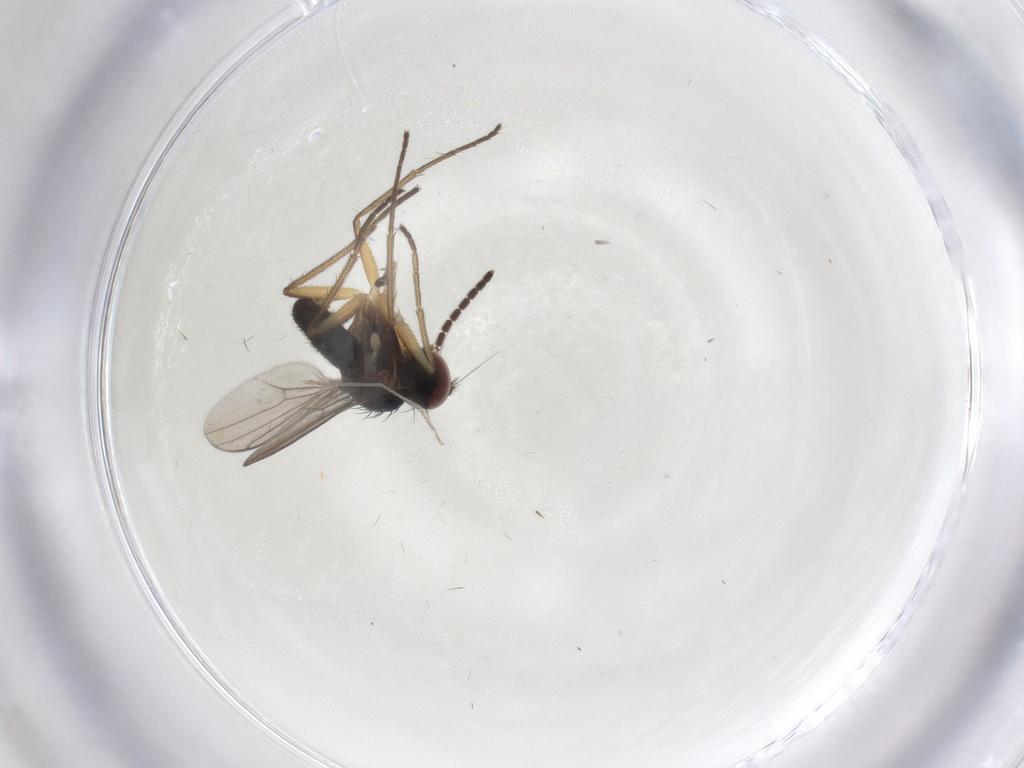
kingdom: Animalia
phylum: Arthropoda
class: Insecta
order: Diptera
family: Dolichopodidae
